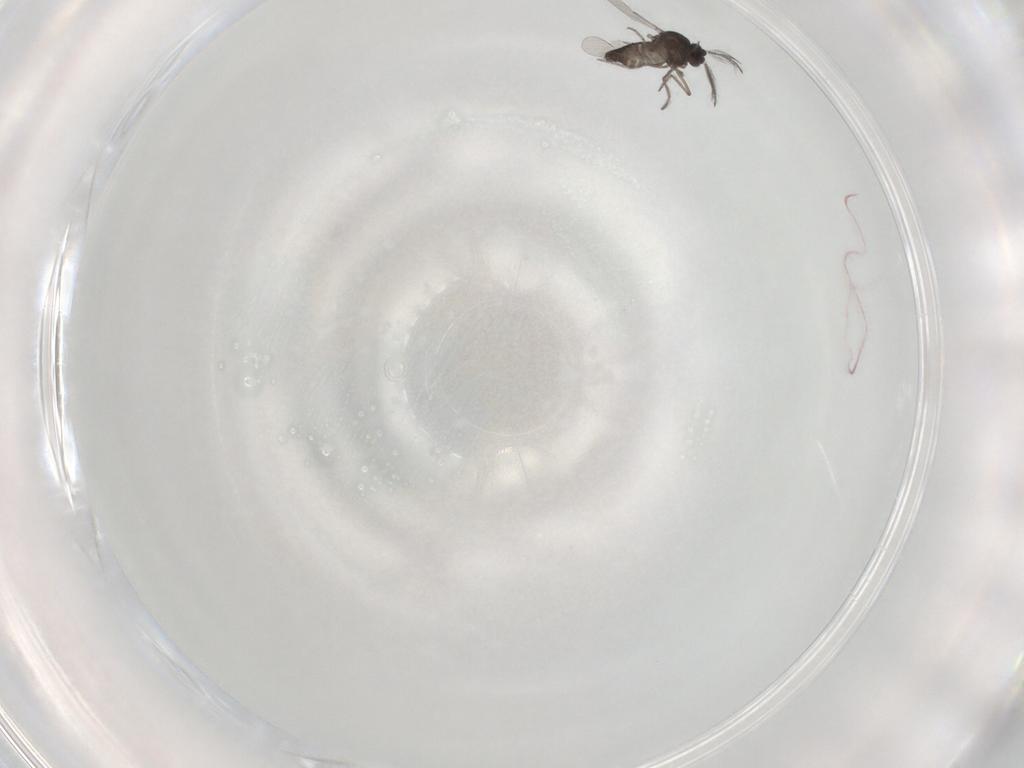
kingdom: Animalia
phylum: Arthropoda
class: Insecta
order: Diptera
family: Ceratopogonidae
